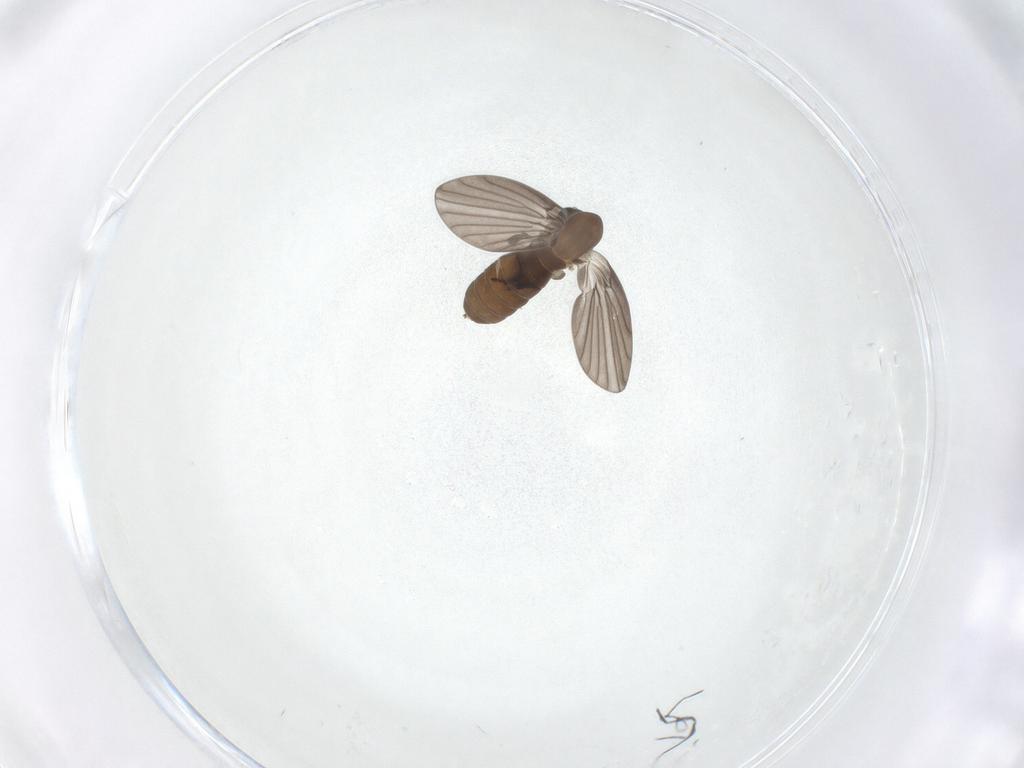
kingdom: Animalia
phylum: Arthropoda
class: Insecta
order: Diptera
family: Psychodidae
